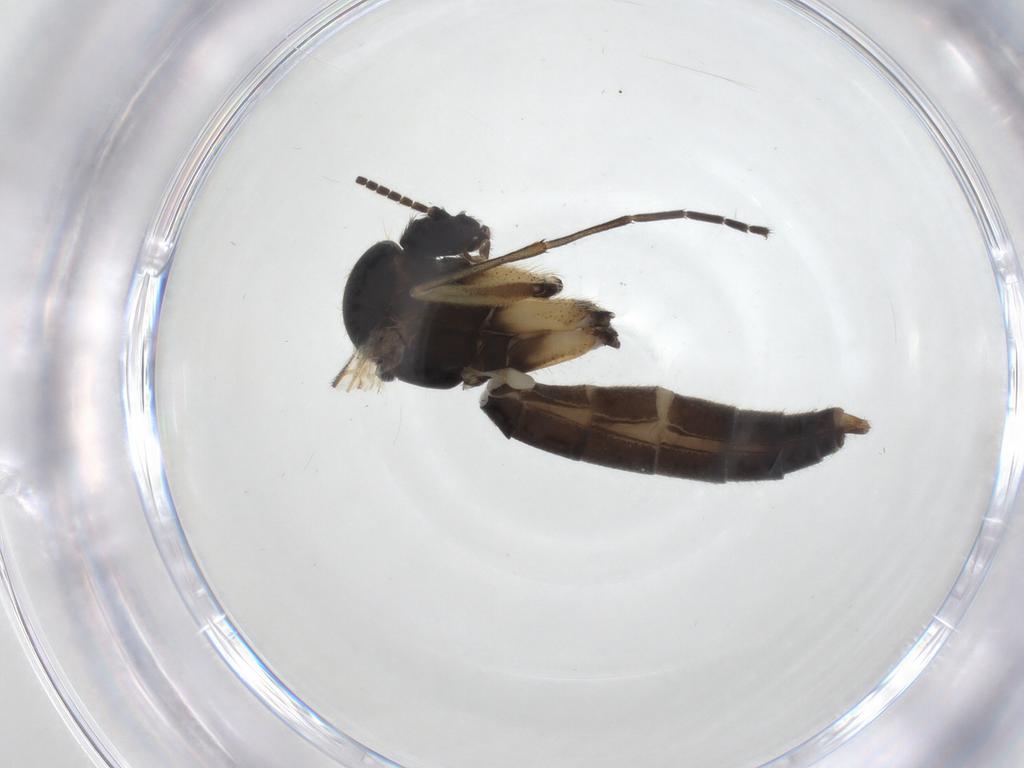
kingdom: Animalia
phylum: Arthropoda
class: Insecta
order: Diptera
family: Mycetophilidae
